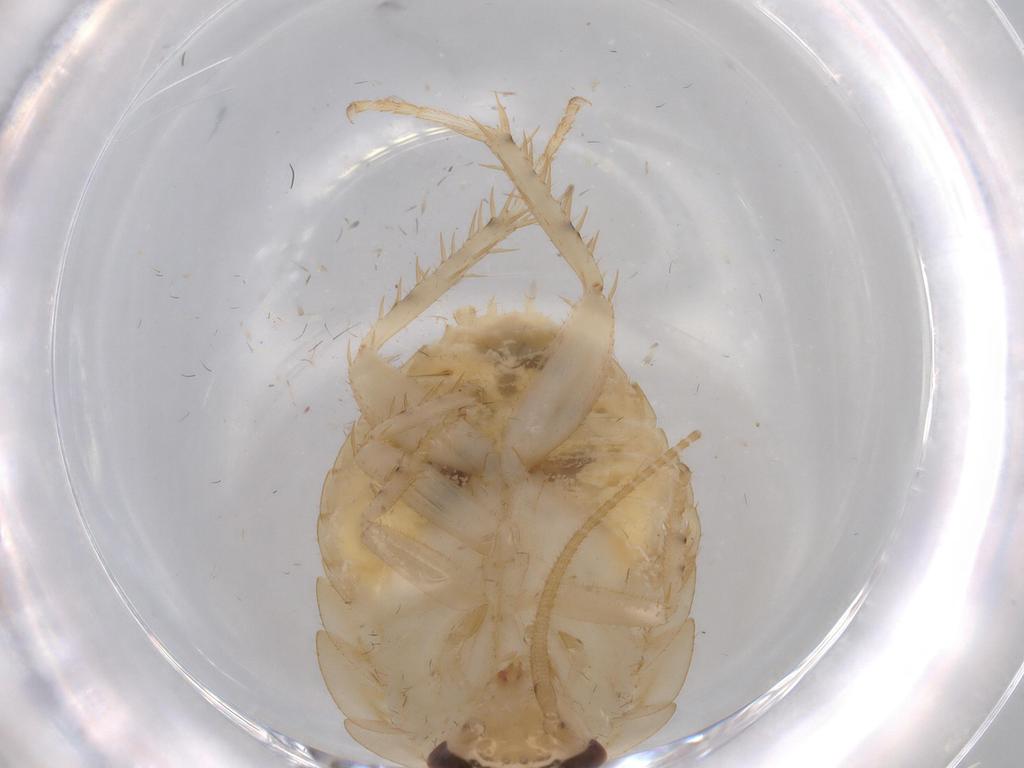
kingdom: Animalia
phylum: Arthropoda
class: Insecta
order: Blattodea
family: Ectobiidae
